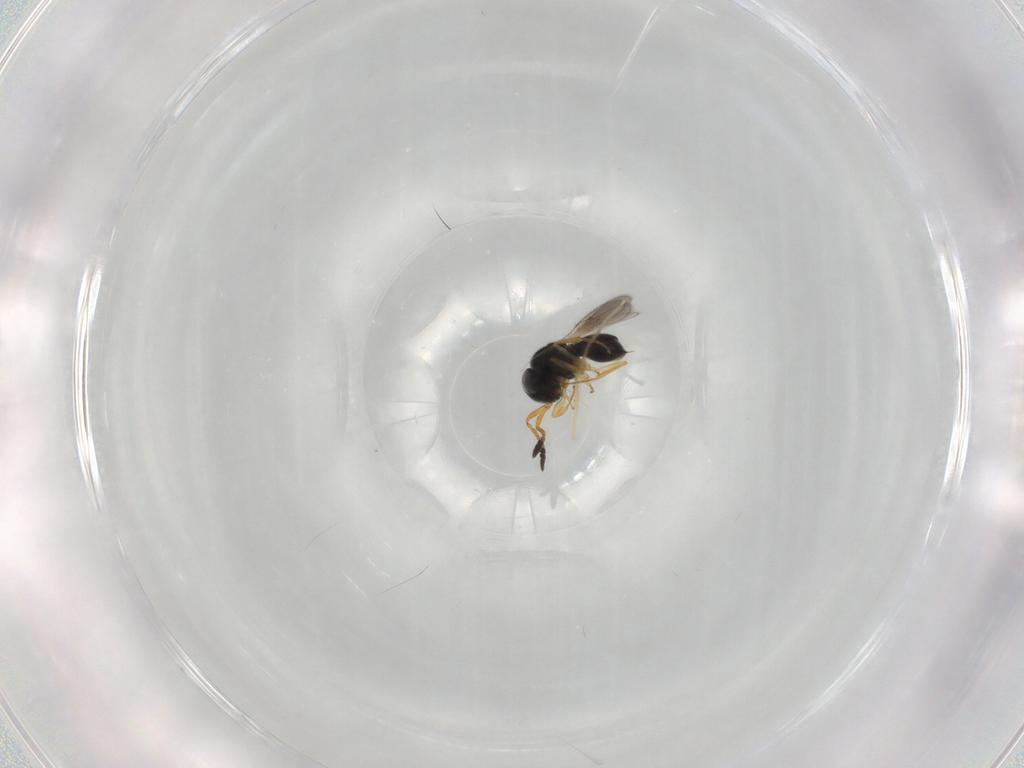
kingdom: Animalia
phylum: Arthropoda
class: Insecta
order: Hymenoptera
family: Scelionidae
